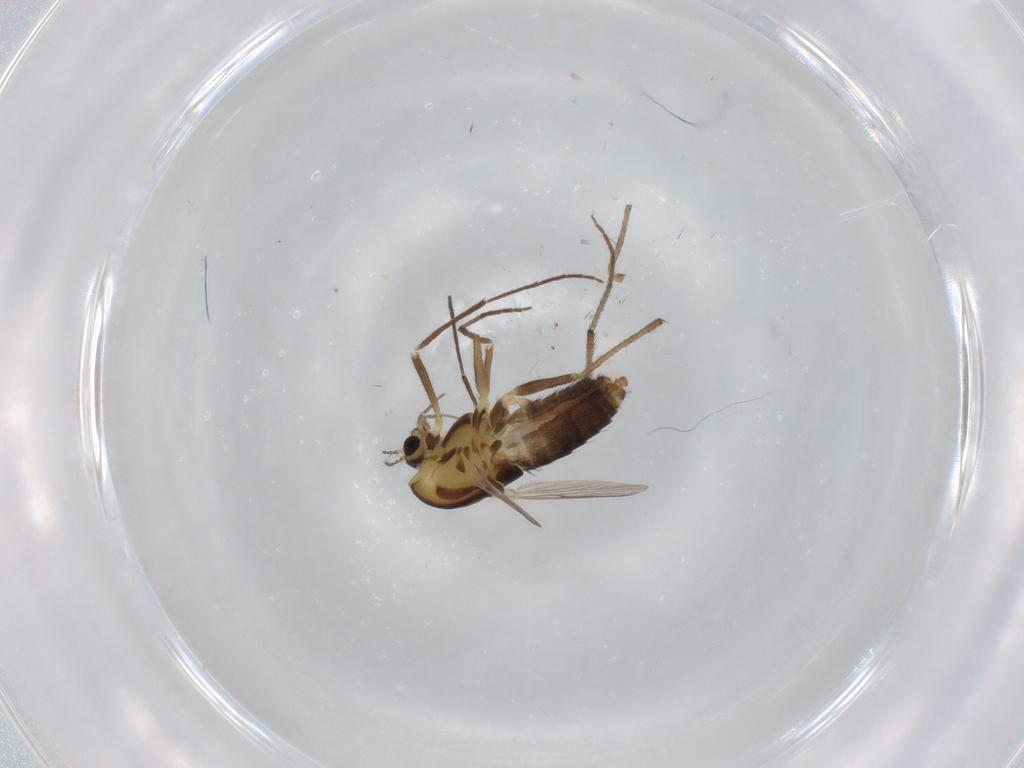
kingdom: Animalia
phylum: Arthropoda
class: Insecta
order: Diptera
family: Chironomidae
